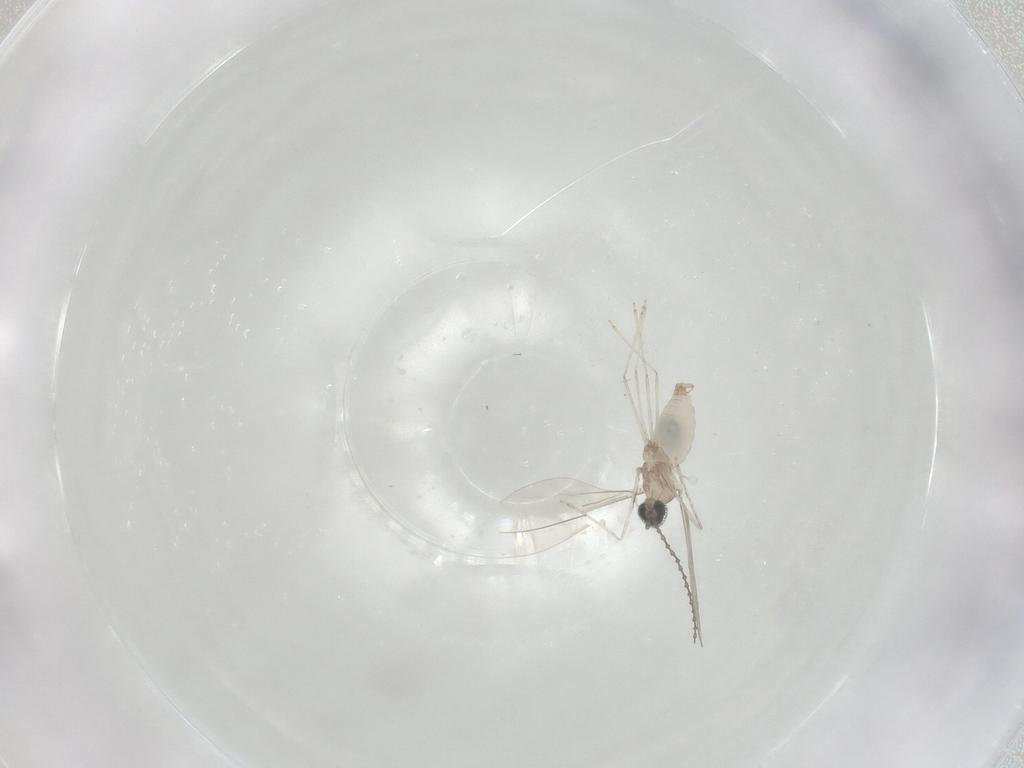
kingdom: Animalia
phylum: Arthropoda
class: Insecta
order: Diptera
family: Cecidomyiidae
